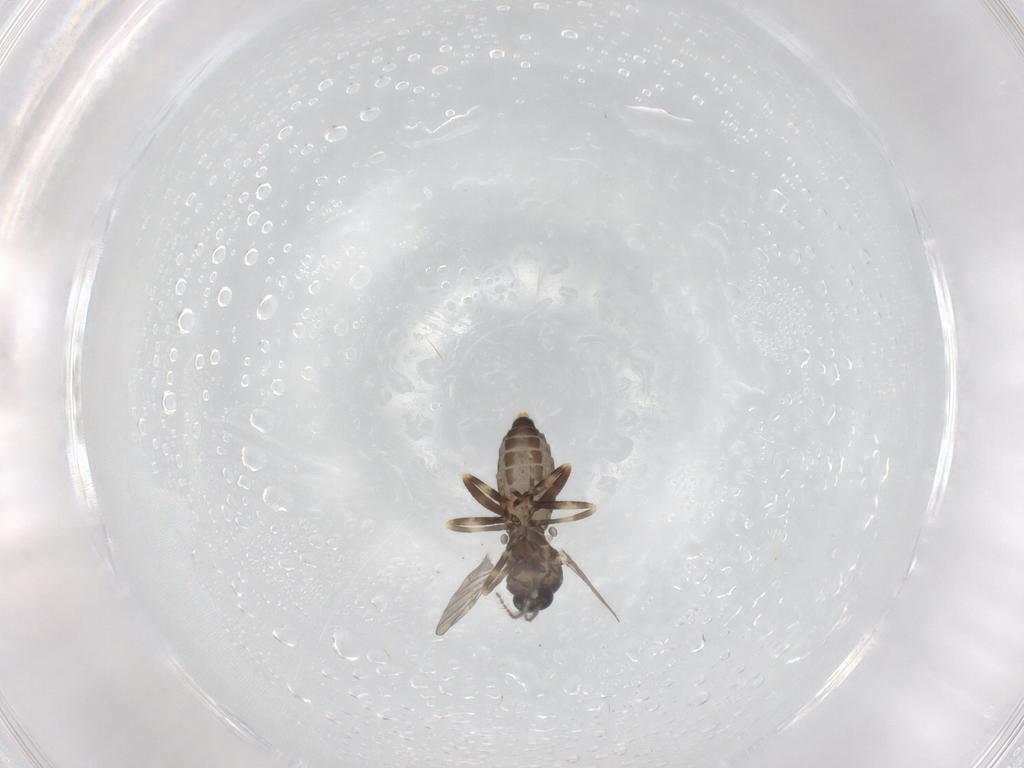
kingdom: Animalia
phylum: Arthropoda
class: Insecta
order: Diptera
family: Ceratopogonidae
